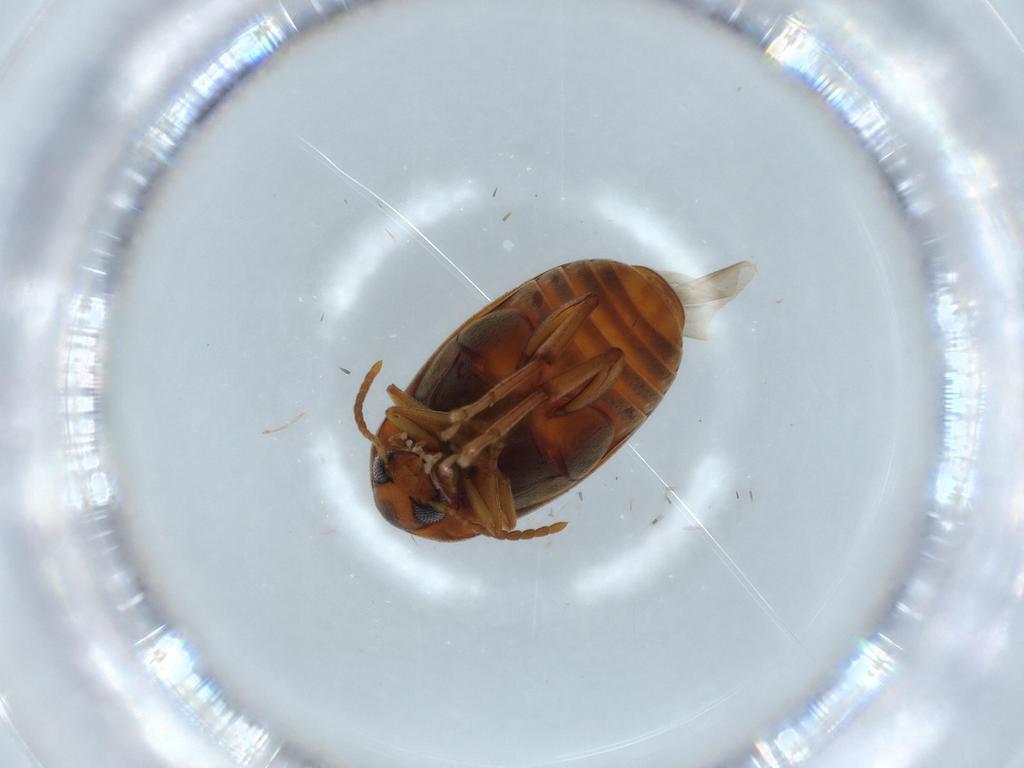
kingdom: Animalia
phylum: Arthropoda
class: Insecta
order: Coleoptera
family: Chrysomelidae
